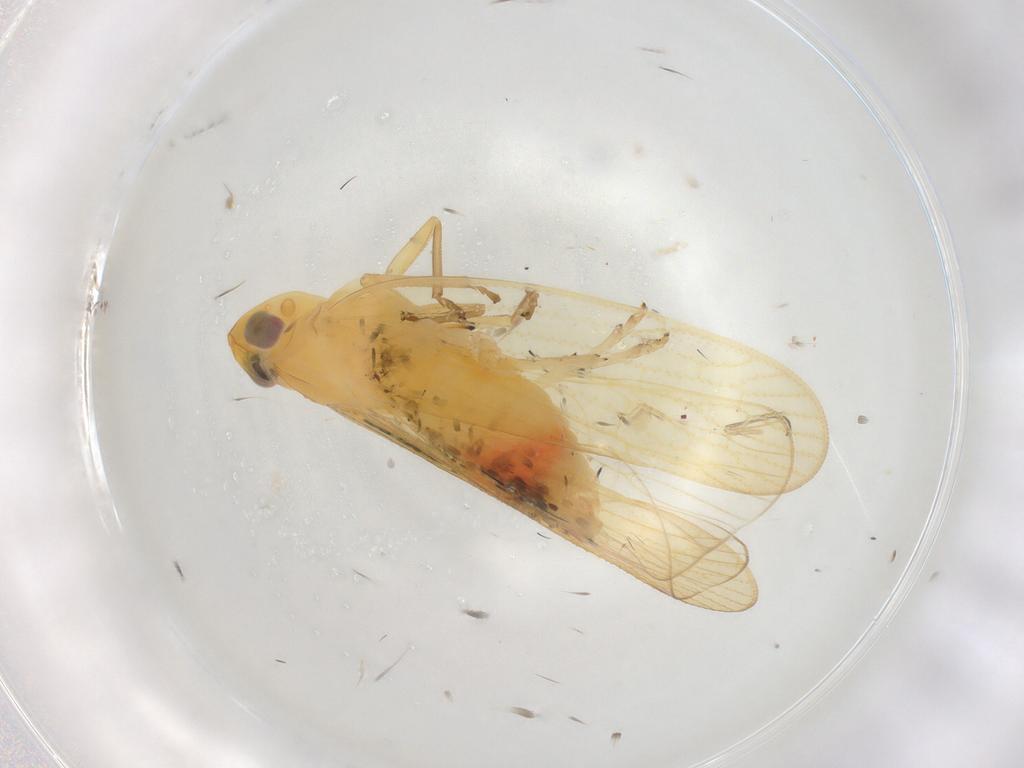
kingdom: Animalia
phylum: Arthropoda
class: Insecta
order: Hemiptera
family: Cixiidae
